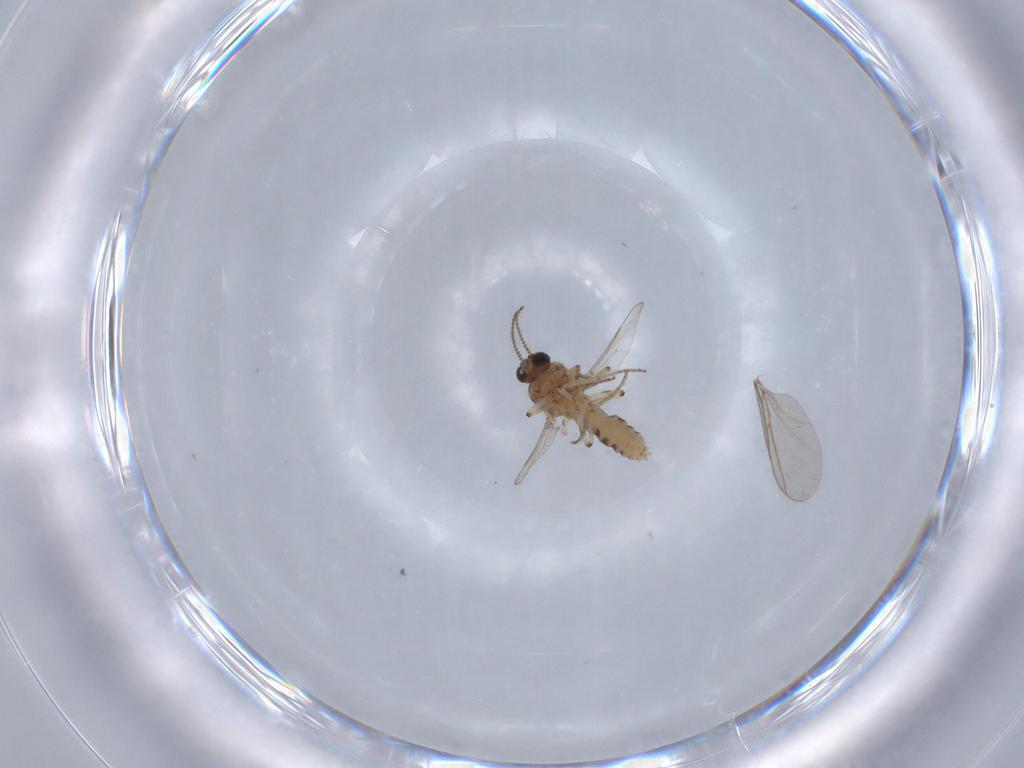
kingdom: Animalia
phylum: Arthropoda
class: Insecta
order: Diptera
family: Ceratopogonidae
